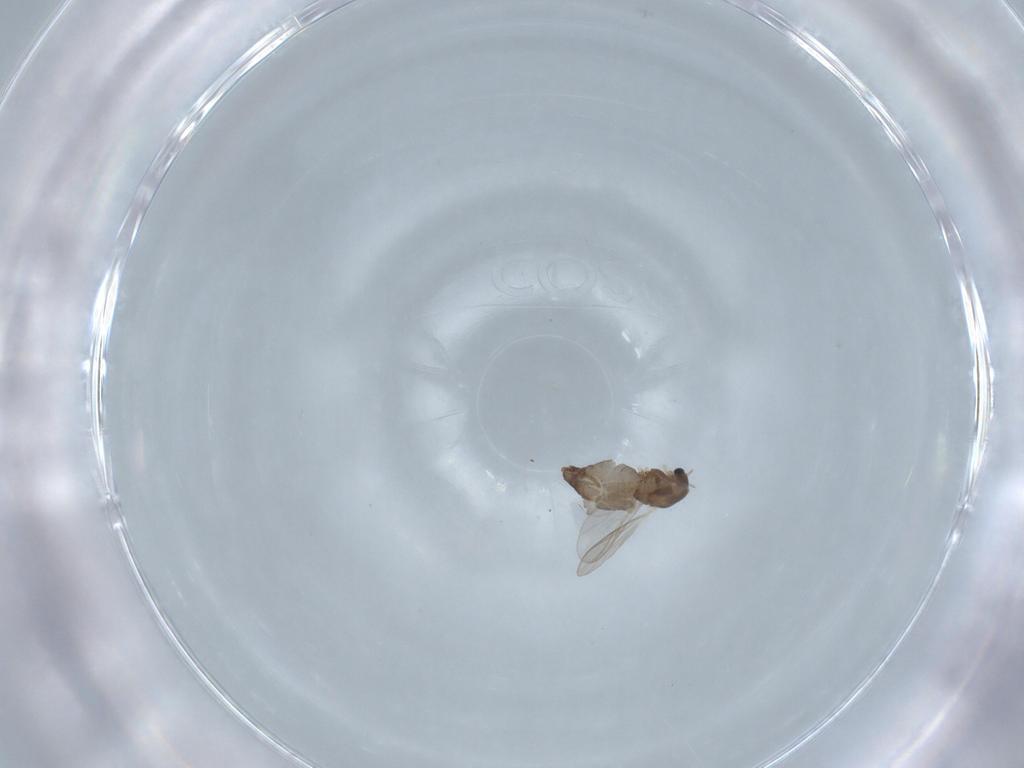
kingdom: Animalia
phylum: Arthropoda
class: Insecta
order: Diptera
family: Chironomidae
